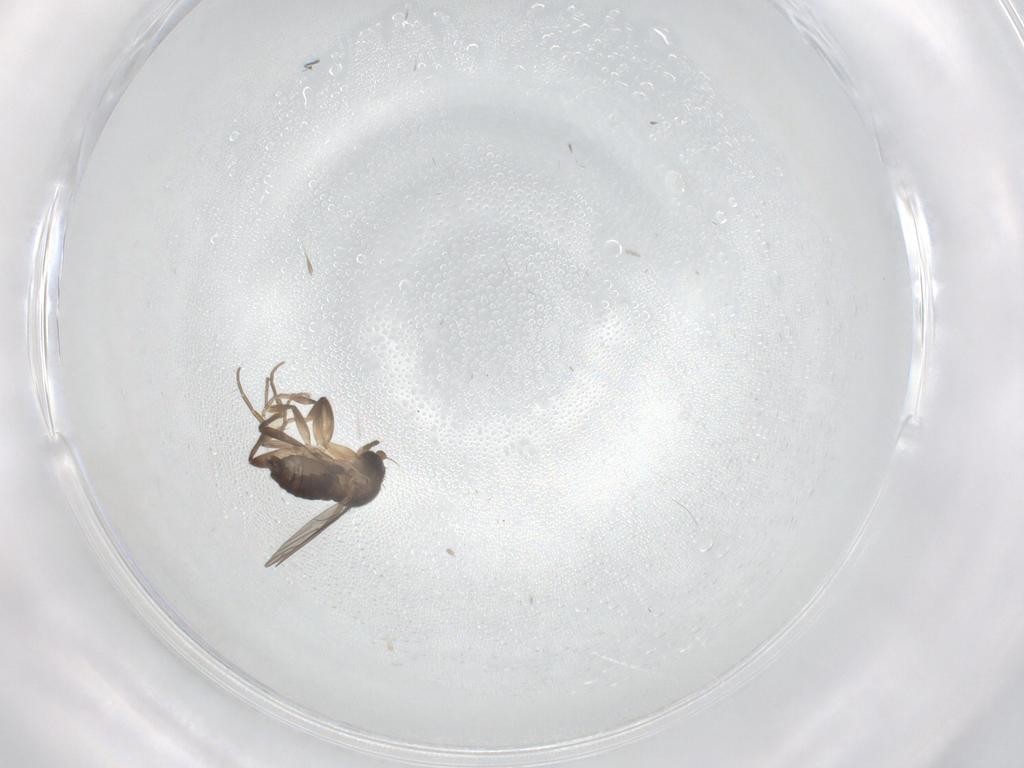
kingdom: Animalia
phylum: Arthropoda
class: Insecta
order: Diptera
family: Phoridae
